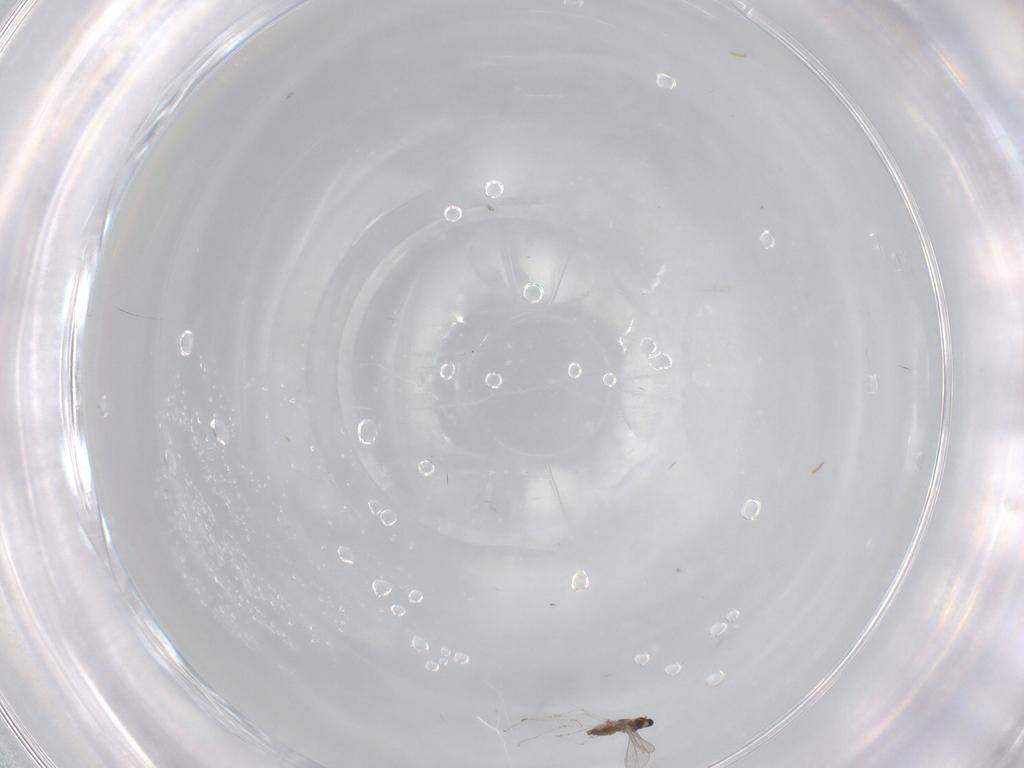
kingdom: Animalia
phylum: Arthropoda
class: Insecta
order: Diptera
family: Cecidomyiidae
